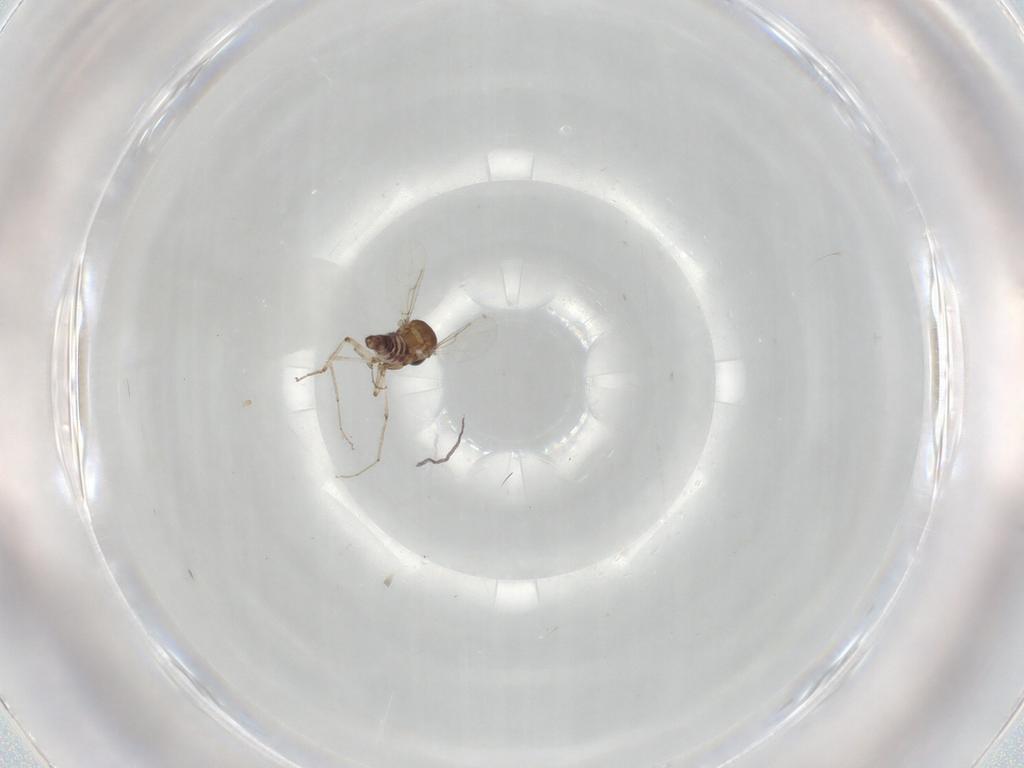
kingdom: Animalia
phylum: Arthropoda
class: Insecta
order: Diptera
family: Ceratopogonidae
